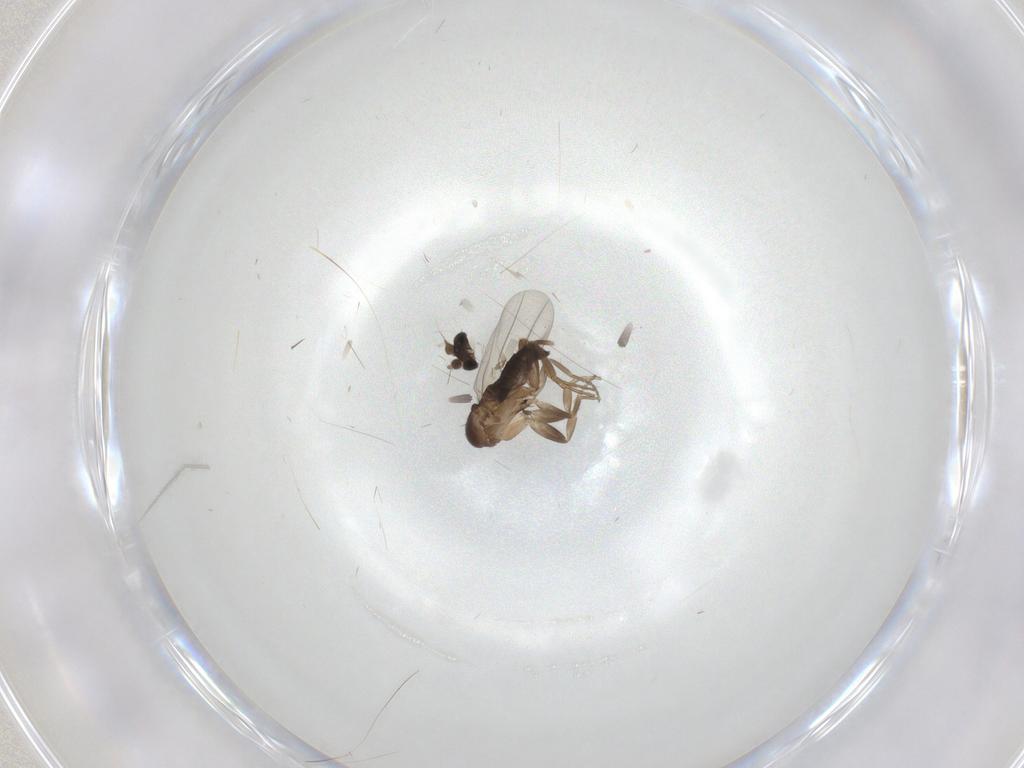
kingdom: Animalia
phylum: Arthropoda
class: Insecta
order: Diptera
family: Phoridae
